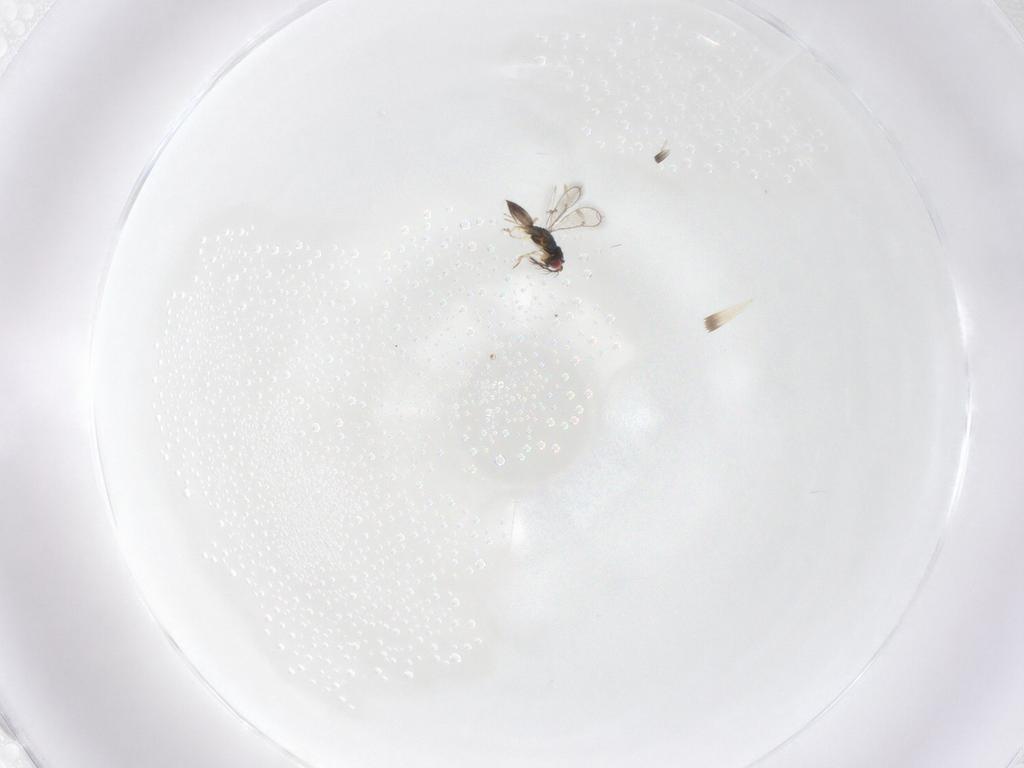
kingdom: Animalia
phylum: Arthropoda
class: Insecta
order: Hymenoptera
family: Eulophidae
